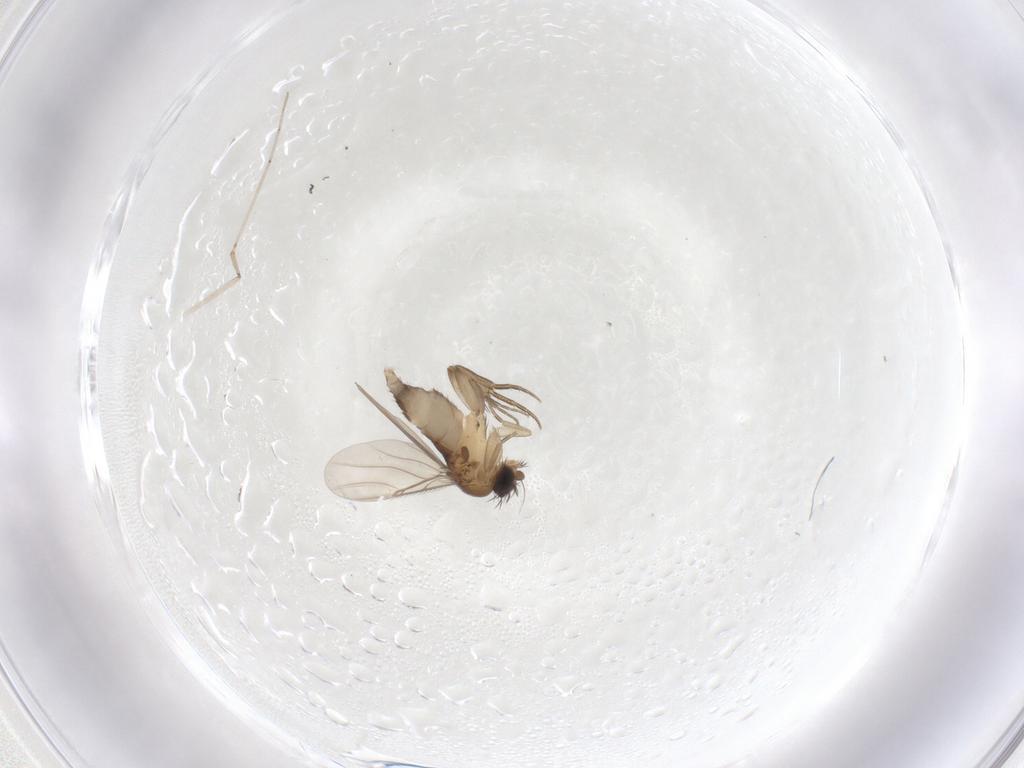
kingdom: Animalia
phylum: Arthropoda
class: Insecta
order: Diptera
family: Phoridae
